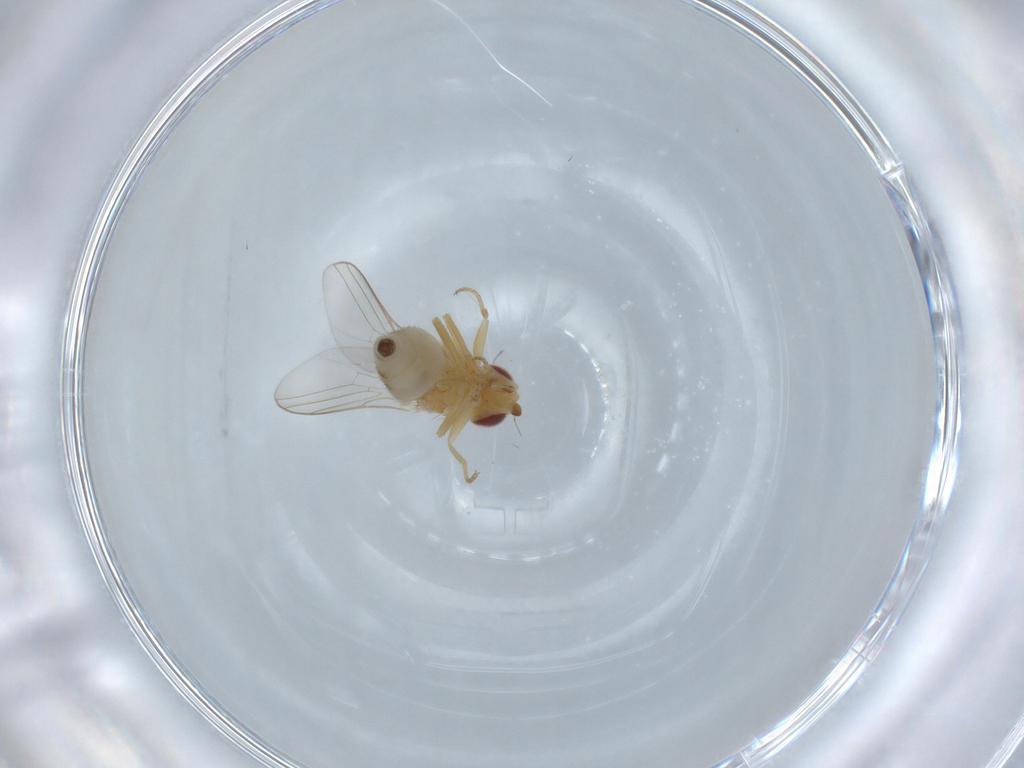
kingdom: Animalia
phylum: Arthropoda
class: Insecta
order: Diptera
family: Chloropidae
